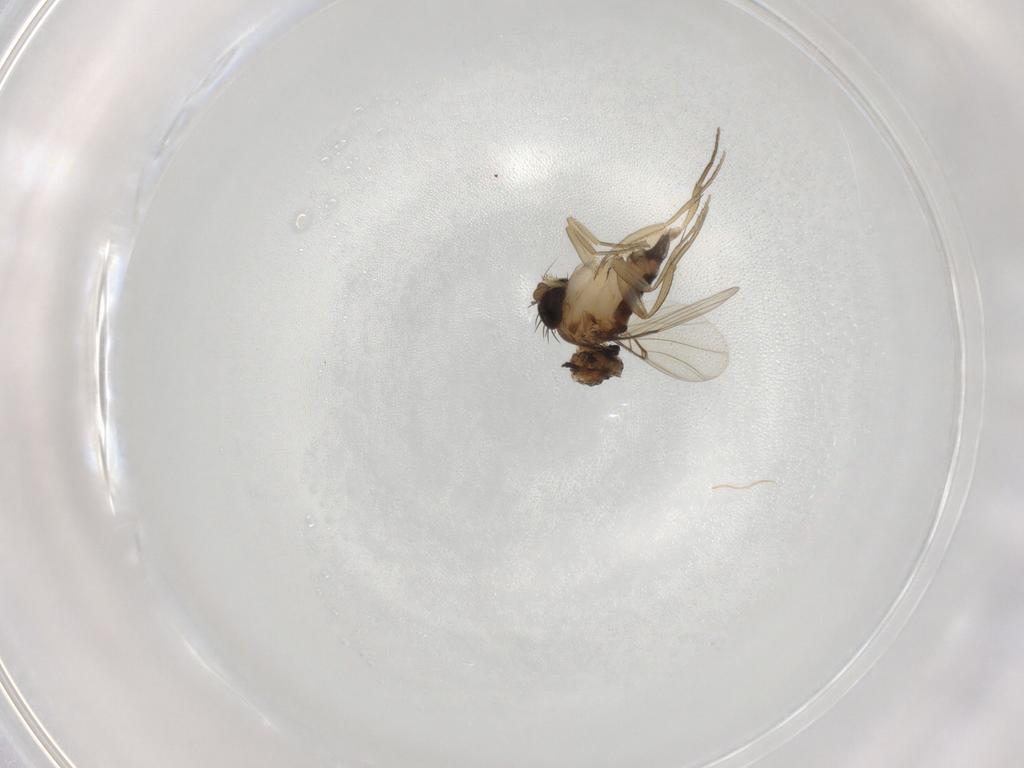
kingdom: Animalia
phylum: Arthropoda
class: Insecta
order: Diptera
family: Phoridae
